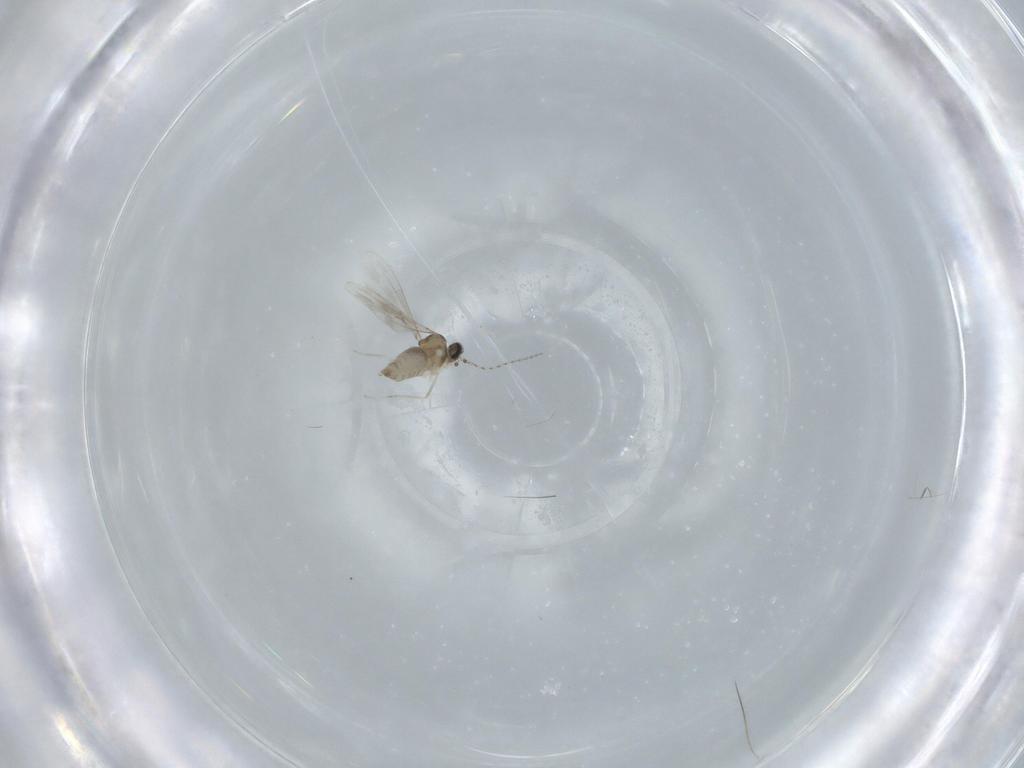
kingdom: Animalia
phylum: Arthropoda
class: Insecta
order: Diptera
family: Cecidomyiidae
